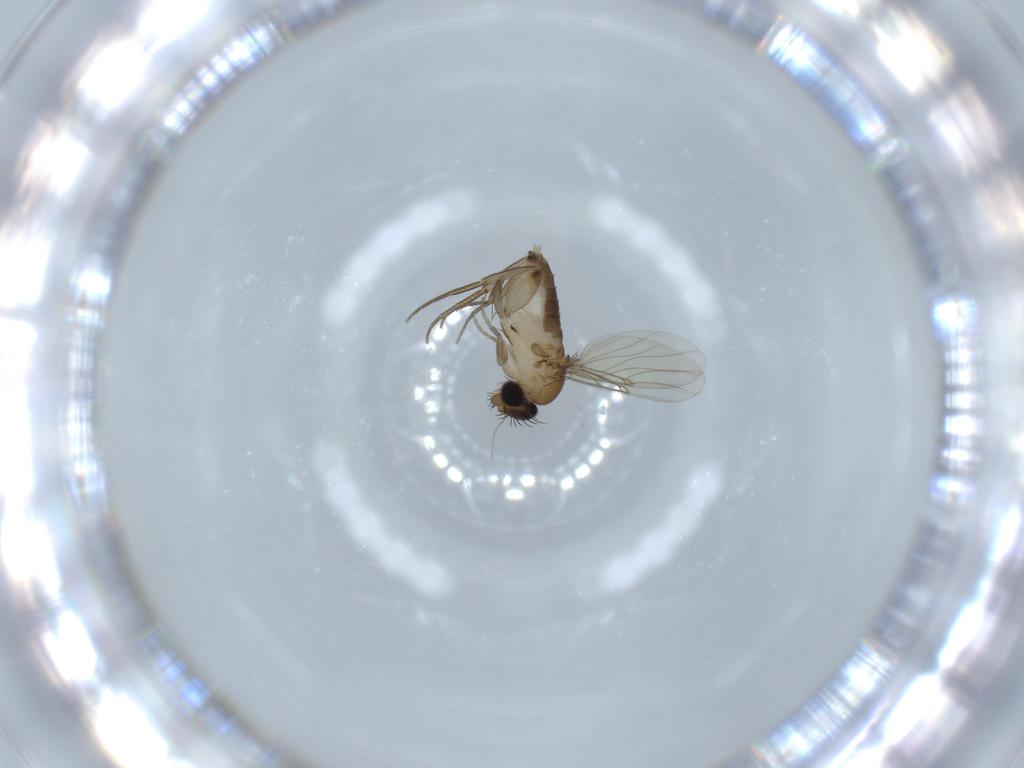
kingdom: Animalia
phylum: Arthropoda
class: Insecta
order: Diptera
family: Phoridae
